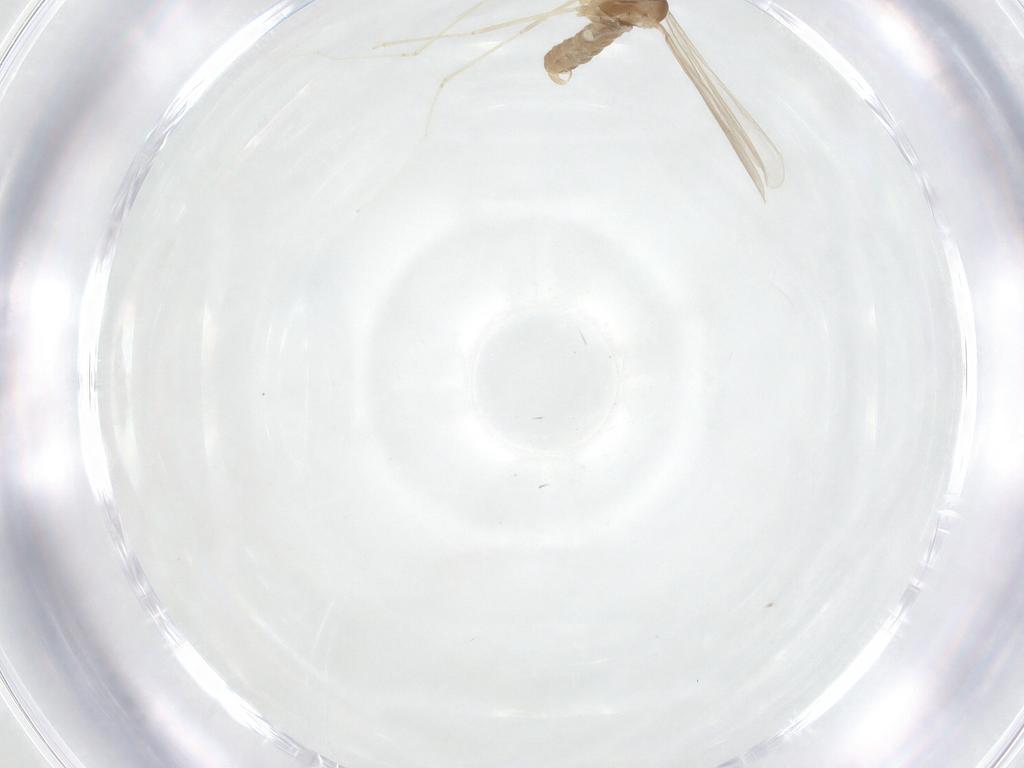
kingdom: Animalia
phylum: Arthropoda
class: Insecta
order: Diptera
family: Cecidomyiidae
